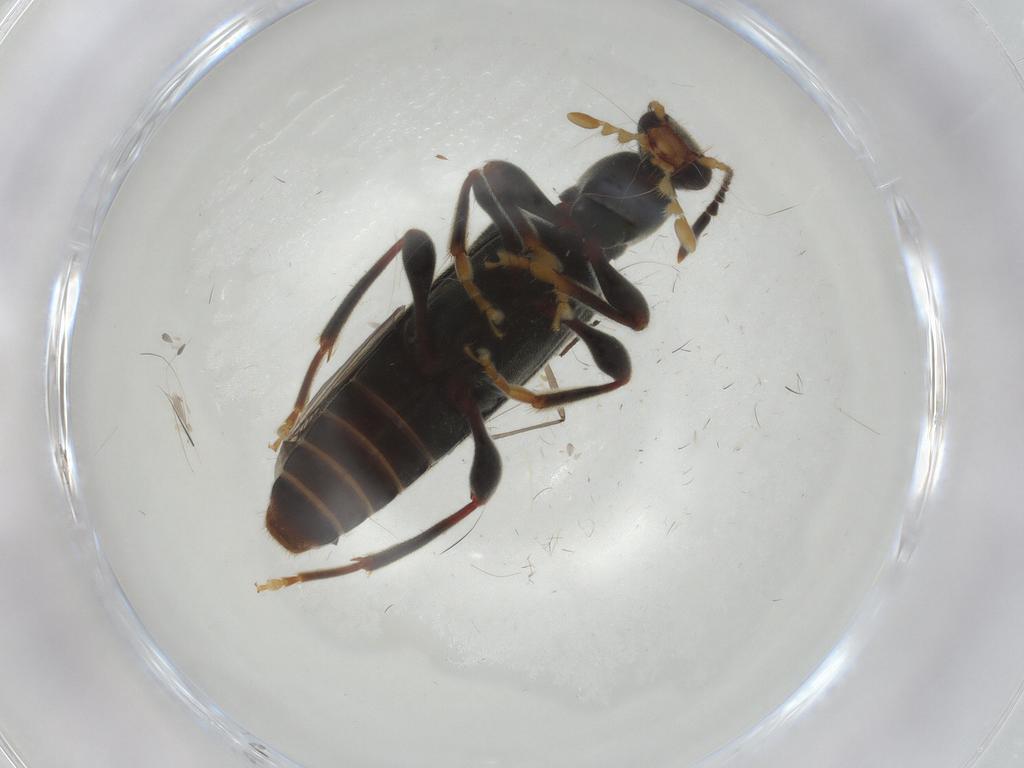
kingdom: Animalia
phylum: Arthropoda
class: Insecta
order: Coleoptera
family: Anthicidae
